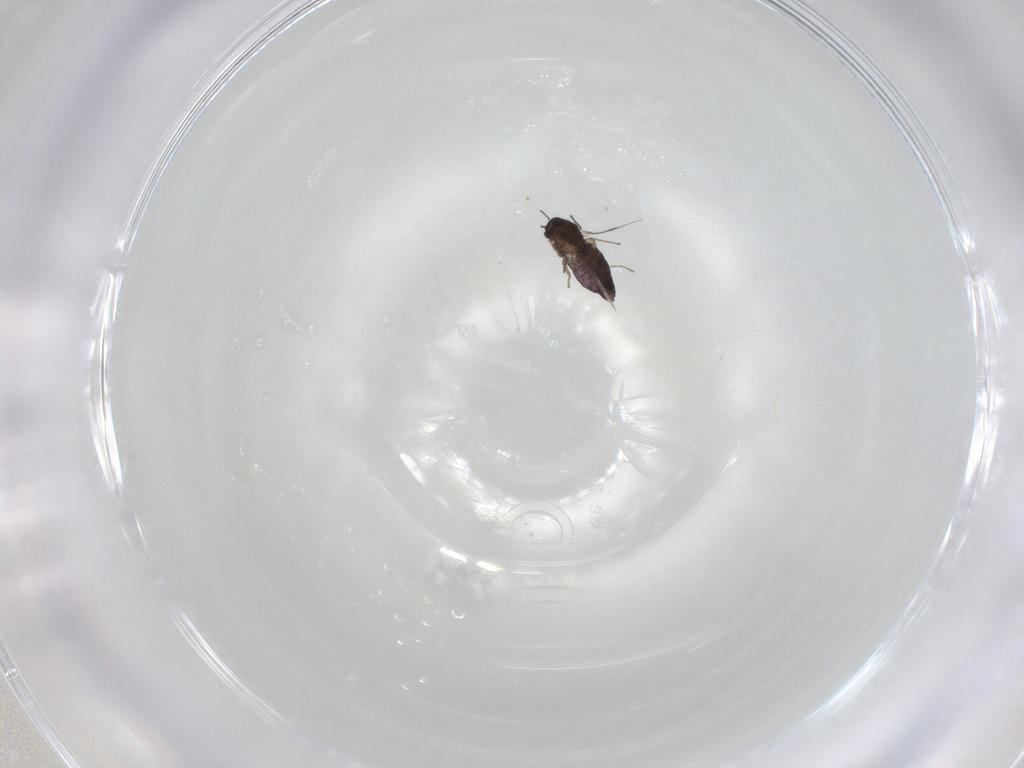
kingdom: Animalia
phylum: Arthropoda
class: Insecta
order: Diptera
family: Chironomidae
